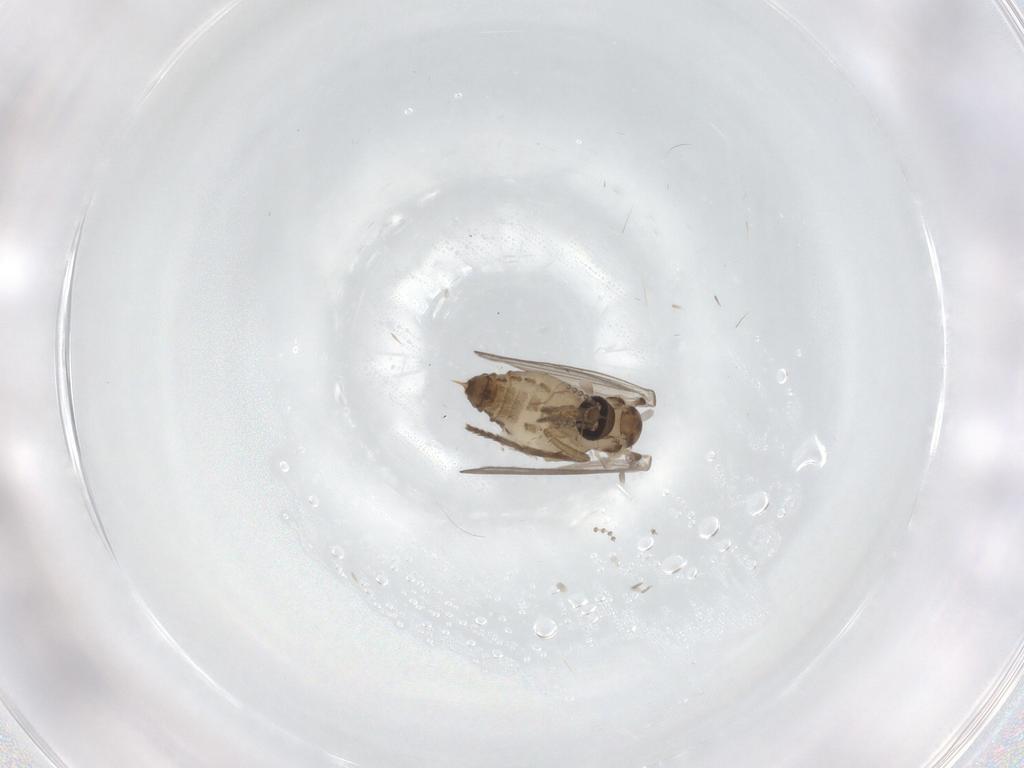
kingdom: Animalia
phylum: Arthropoda
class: Insecta
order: Diptera
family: Psychodidae
